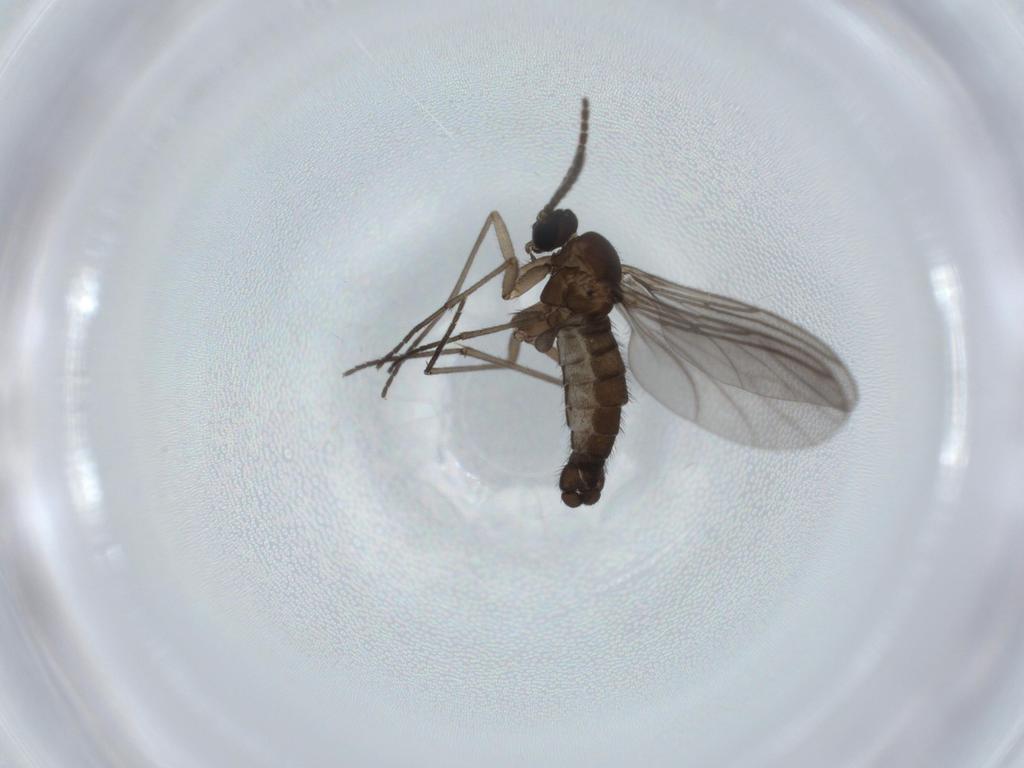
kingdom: Animalia
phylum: Arthropoda
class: Insecta
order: Diptera
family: Sciaridae
